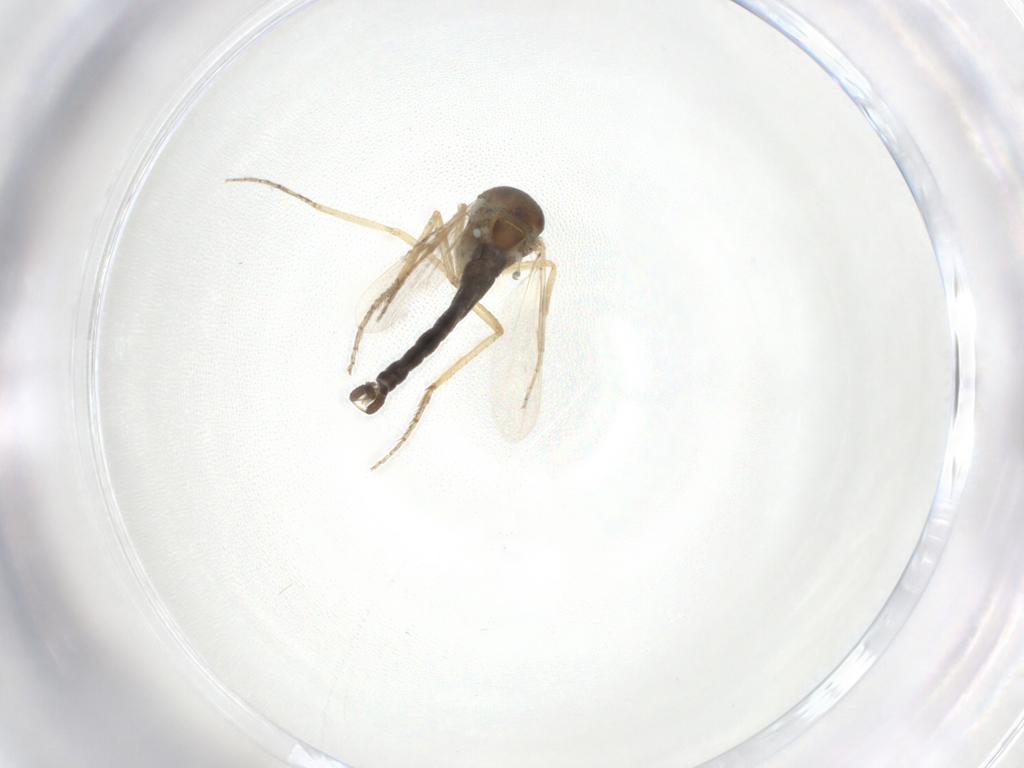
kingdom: Animalia
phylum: Arthropoda
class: Insecta
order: Diptera
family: Ceratopogonidae
